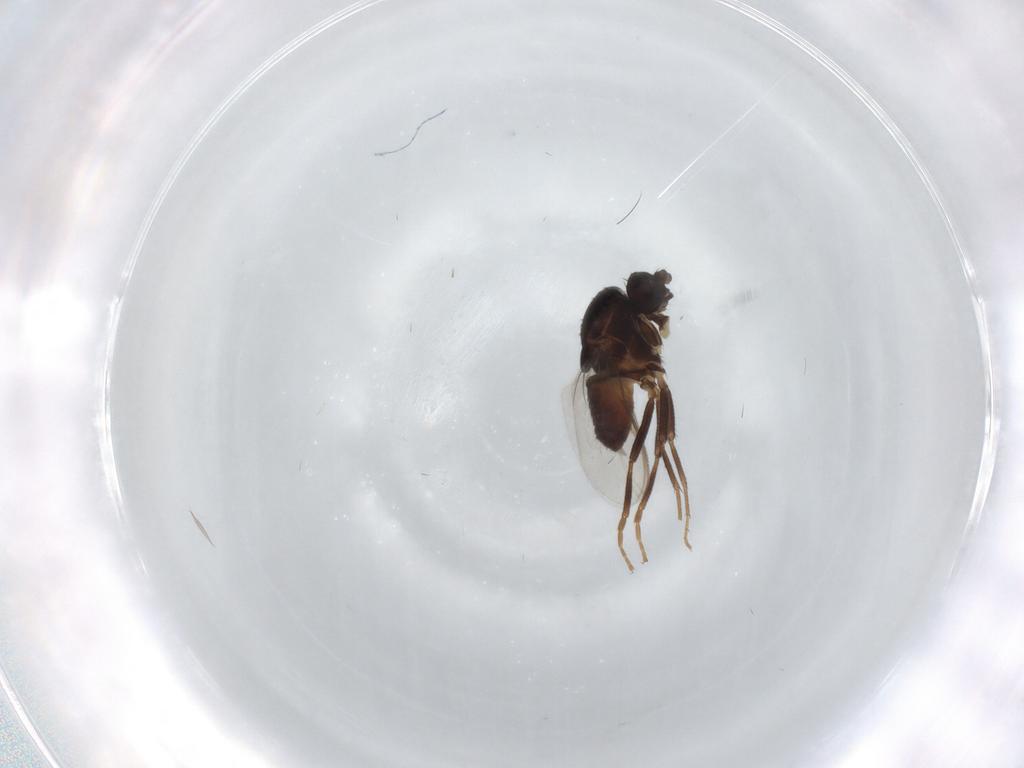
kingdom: Animalia
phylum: Arthropoda
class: Insecta
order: Diptera
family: Sphaeroceridae
